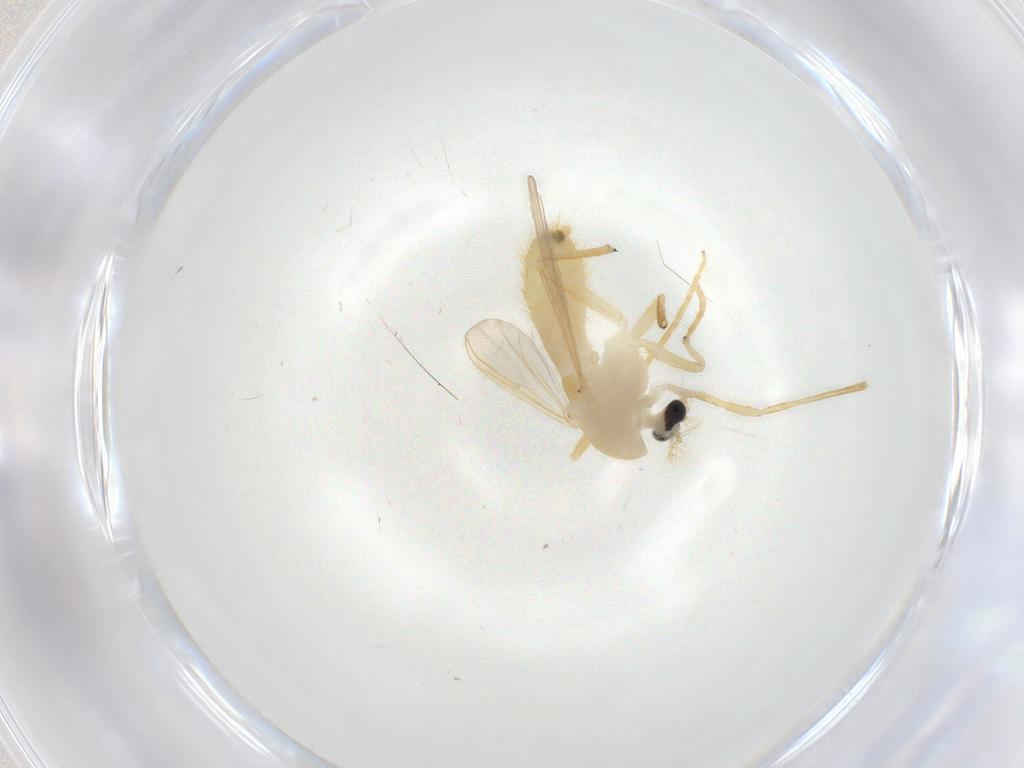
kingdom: Animalia
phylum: Arthropoda
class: Insecta
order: Diptera
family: Chironomidae
